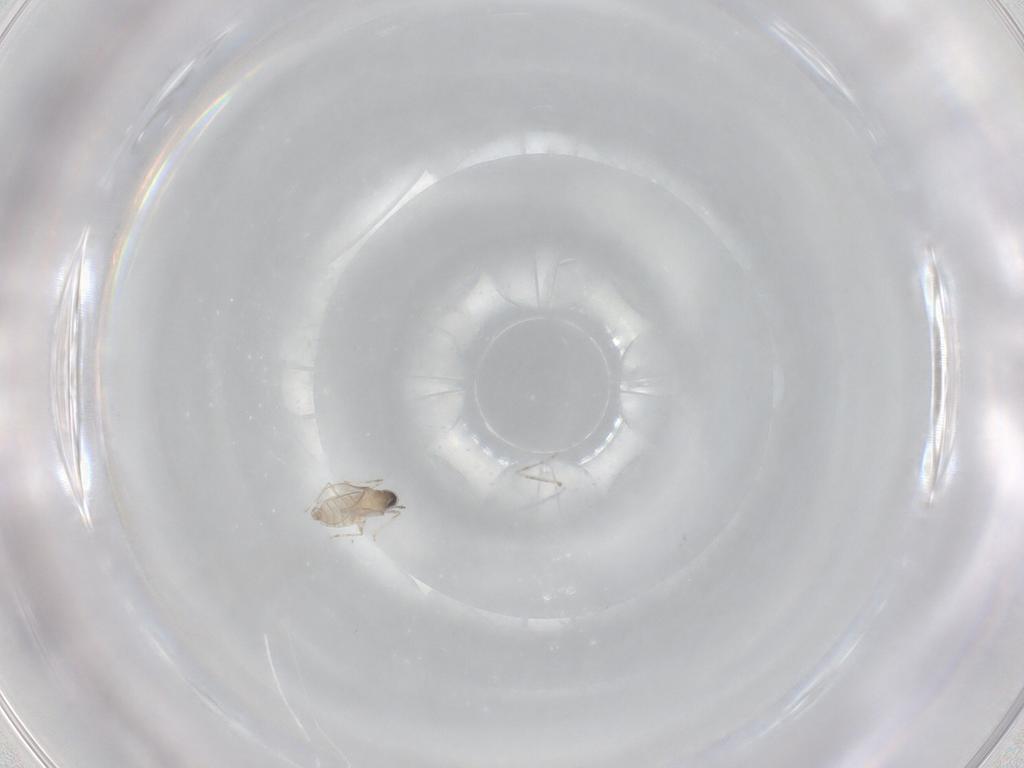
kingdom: Animalia
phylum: Arthropoda
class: Insecta
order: Diptera
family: Cecidomyiidae
